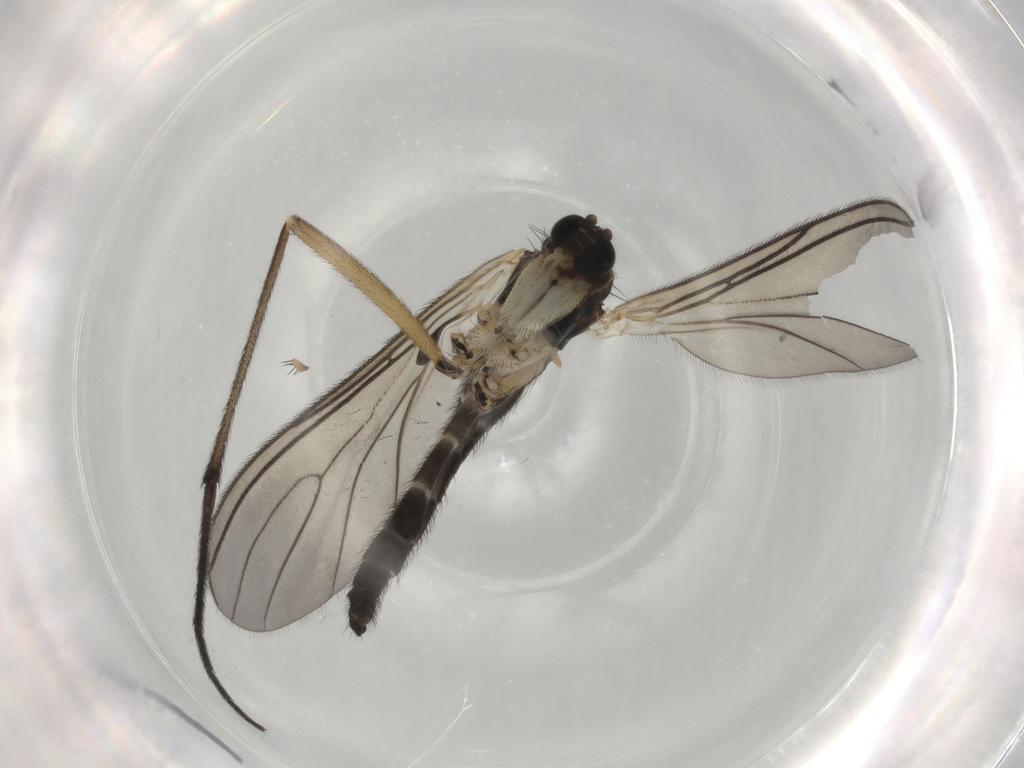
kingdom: Animalia
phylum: Arthropoda
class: Insecta
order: Diptera
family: Sciaridae
